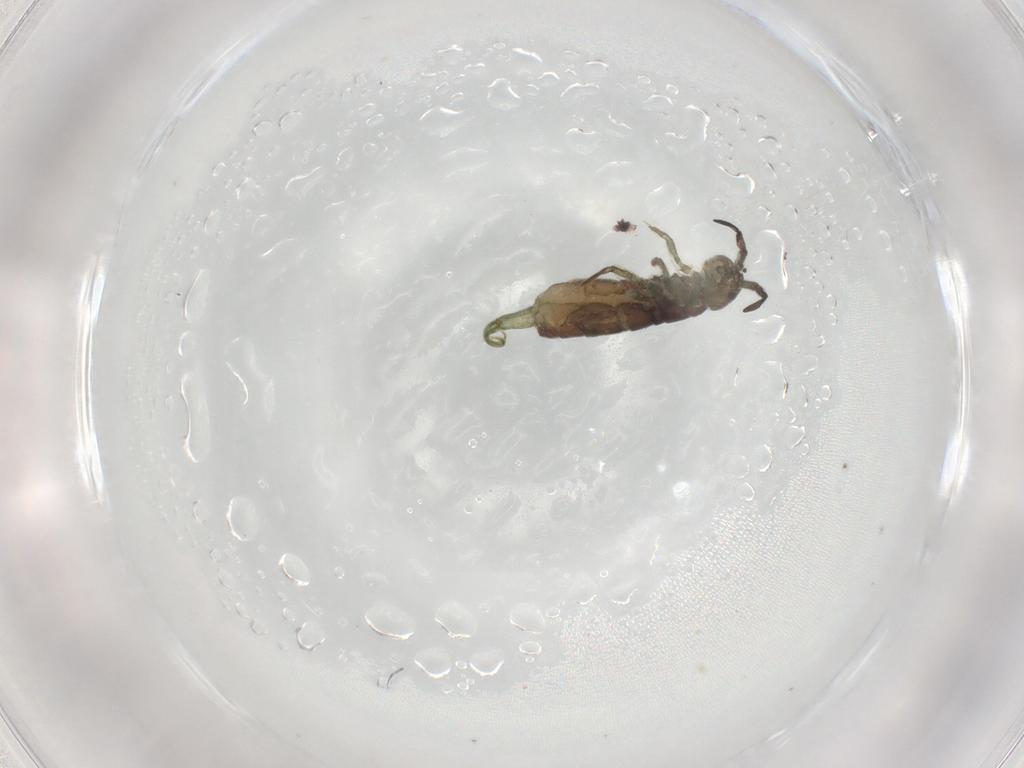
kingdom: Animalia
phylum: Arthropoda
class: Collembola
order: Entomobryomorpha
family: Isotomidae
